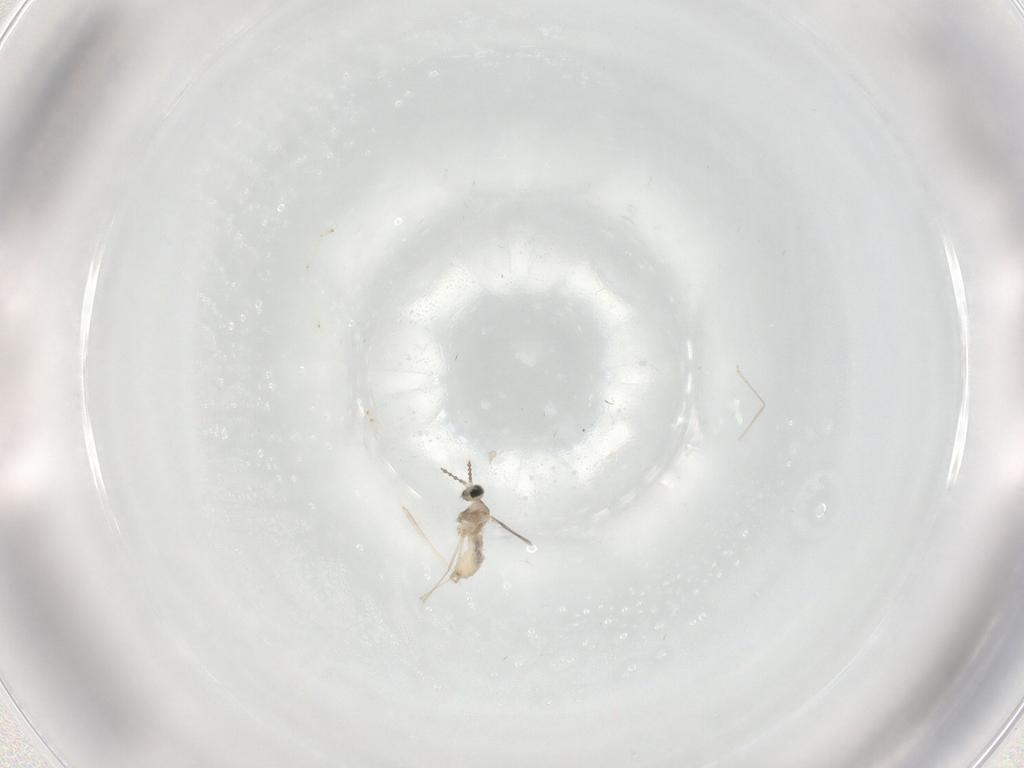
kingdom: Animalia
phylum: Arthropoda
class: Insecta
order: Diptera
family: Cecidomyiidae
